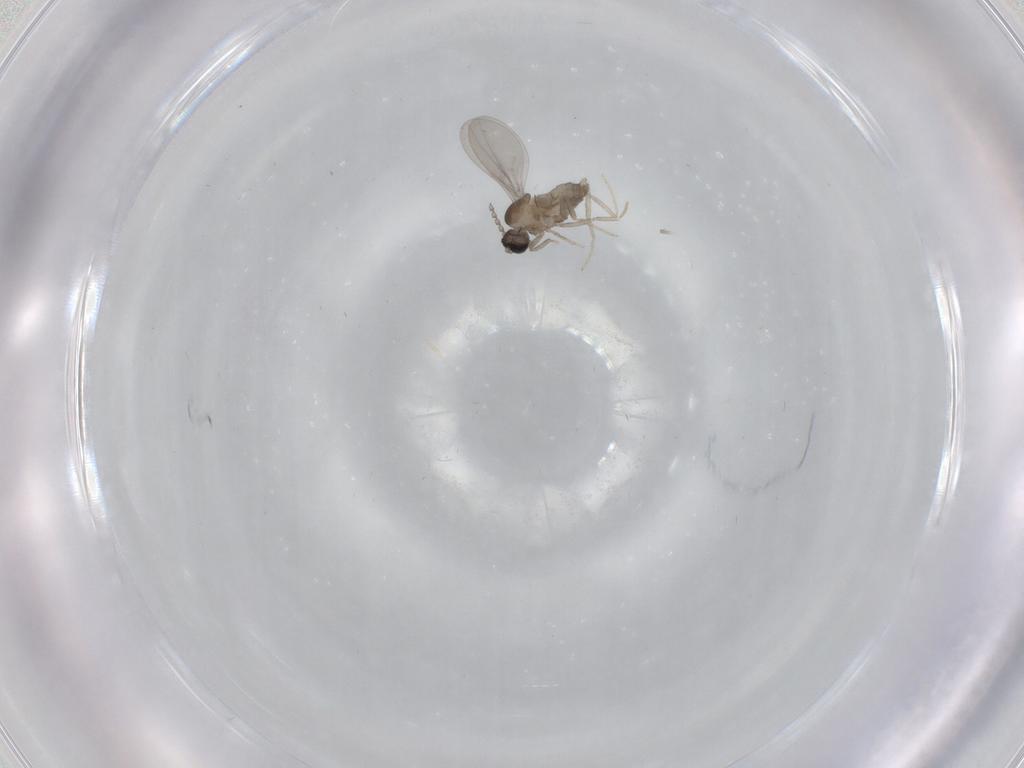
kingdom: Animalia
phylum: Arthropoda
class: Insecta
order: Diptera
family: Cecidomyiidae
